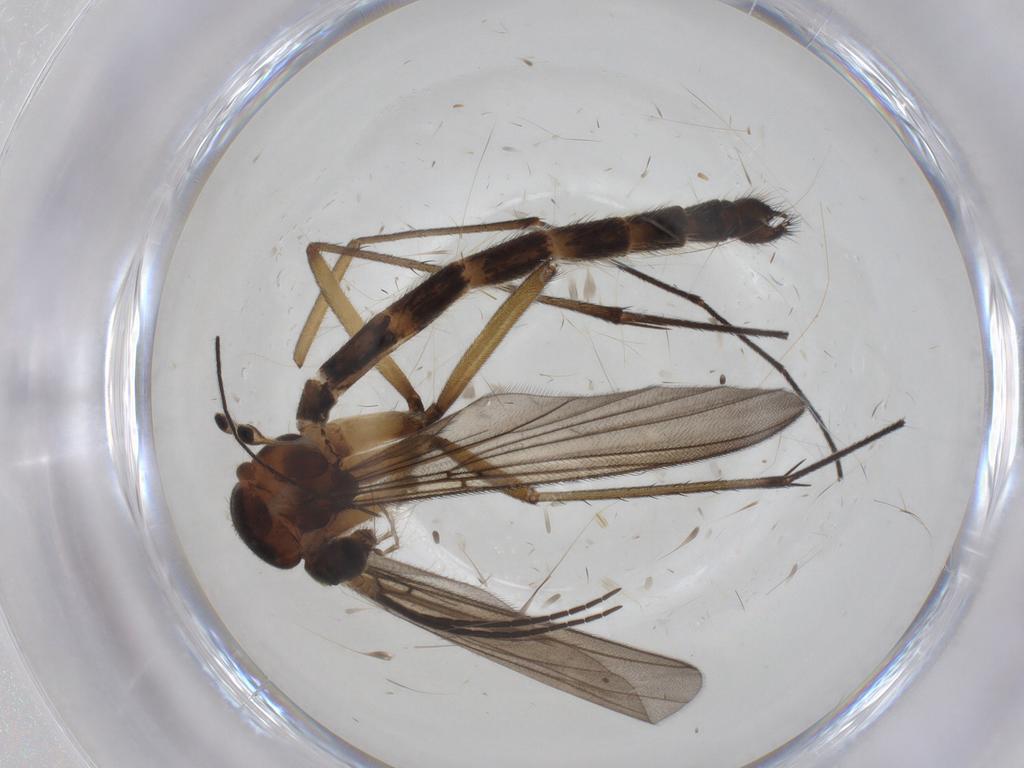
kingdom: Animalia
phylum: Arthropoda
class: Insecta
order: Diptera
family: Mycetophilidae
